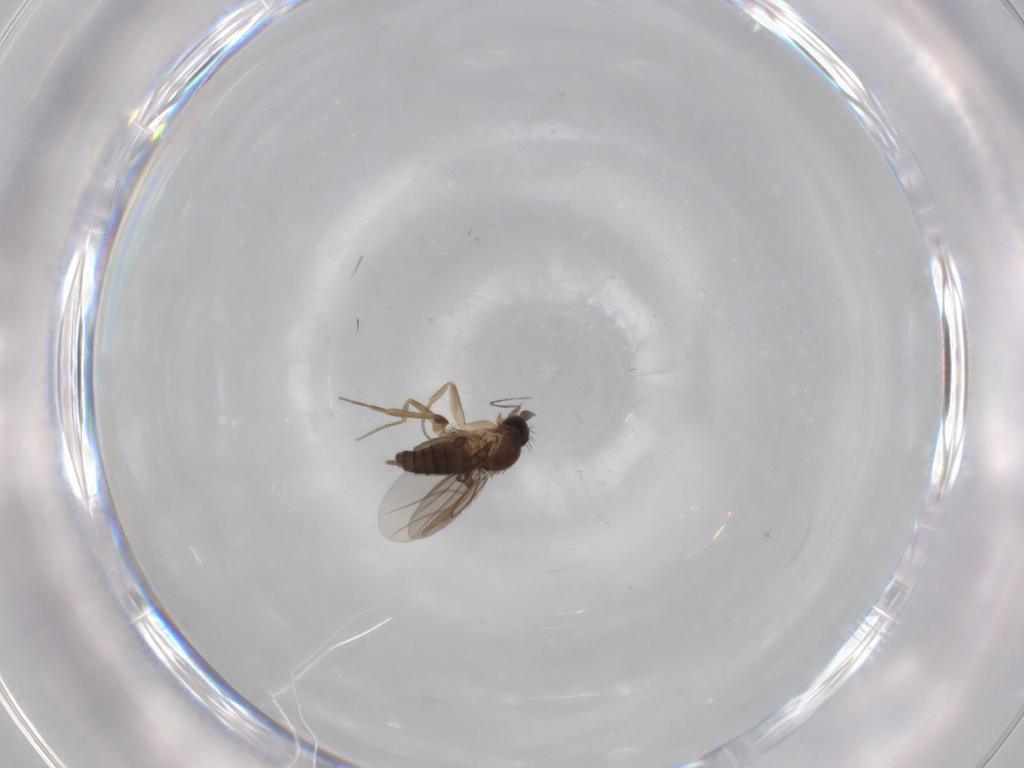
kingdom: Animalia
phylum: Arthropoda
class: Insecta
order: Diptera
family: Phoridae
